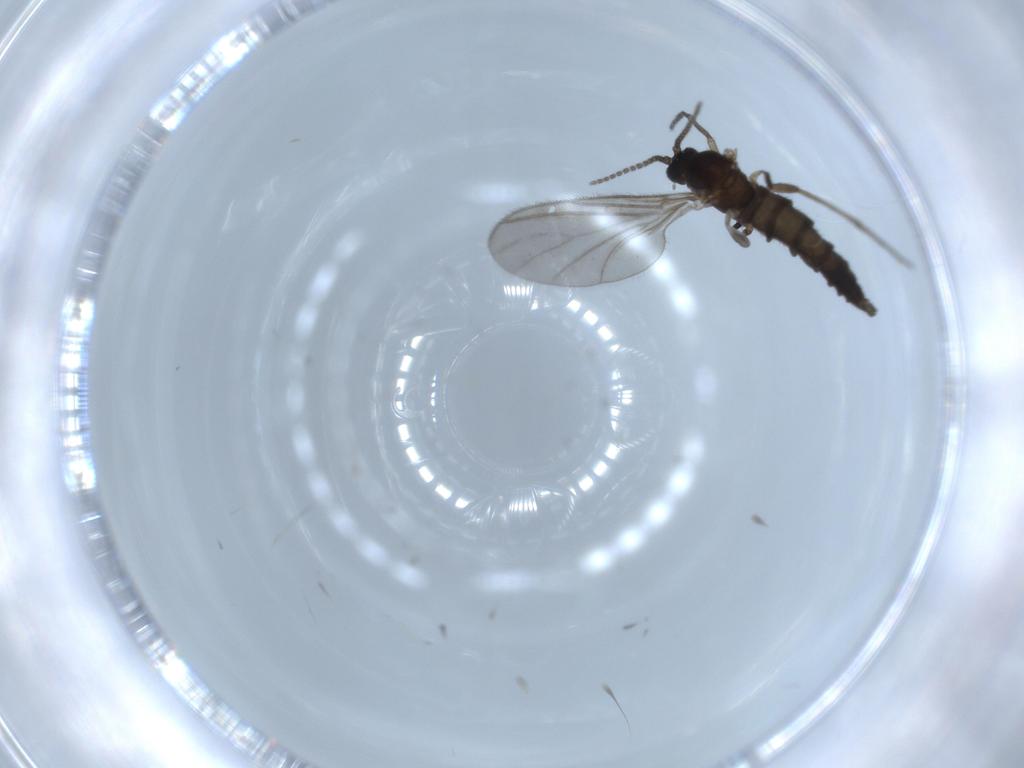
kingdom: Animalia
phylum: Arthropoda
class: Insecta
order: Diptera
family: Sciaridae
